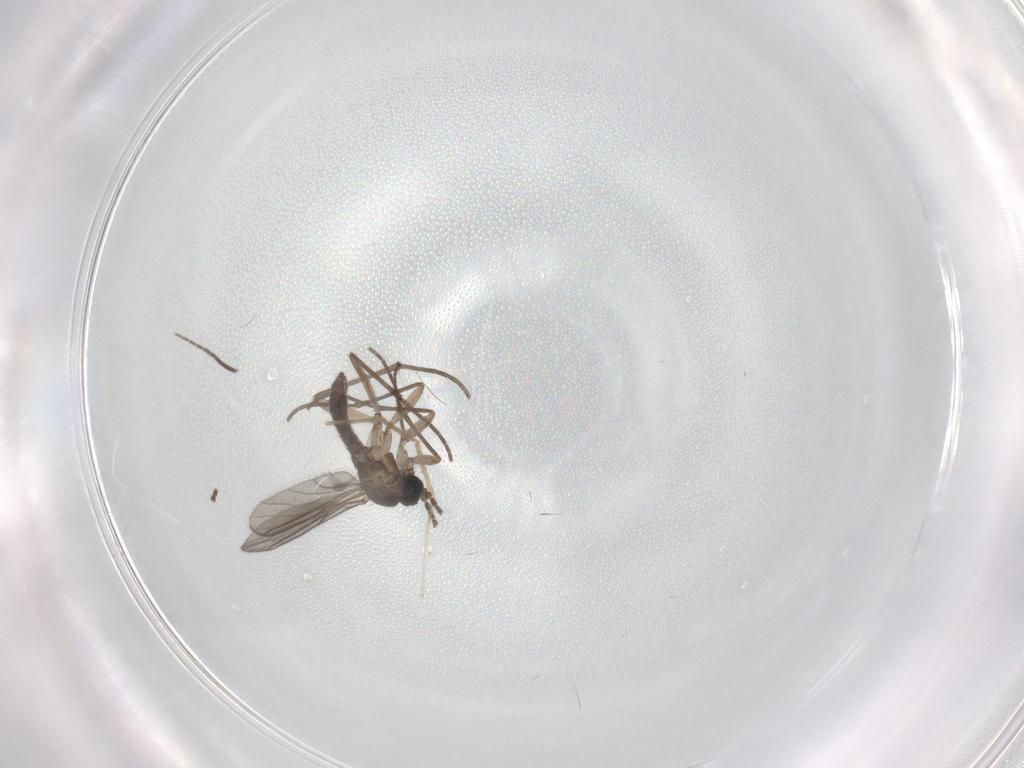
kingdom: Animalia
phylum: Arthropoda
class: Insecta
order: Diptera
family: Sciaridae
